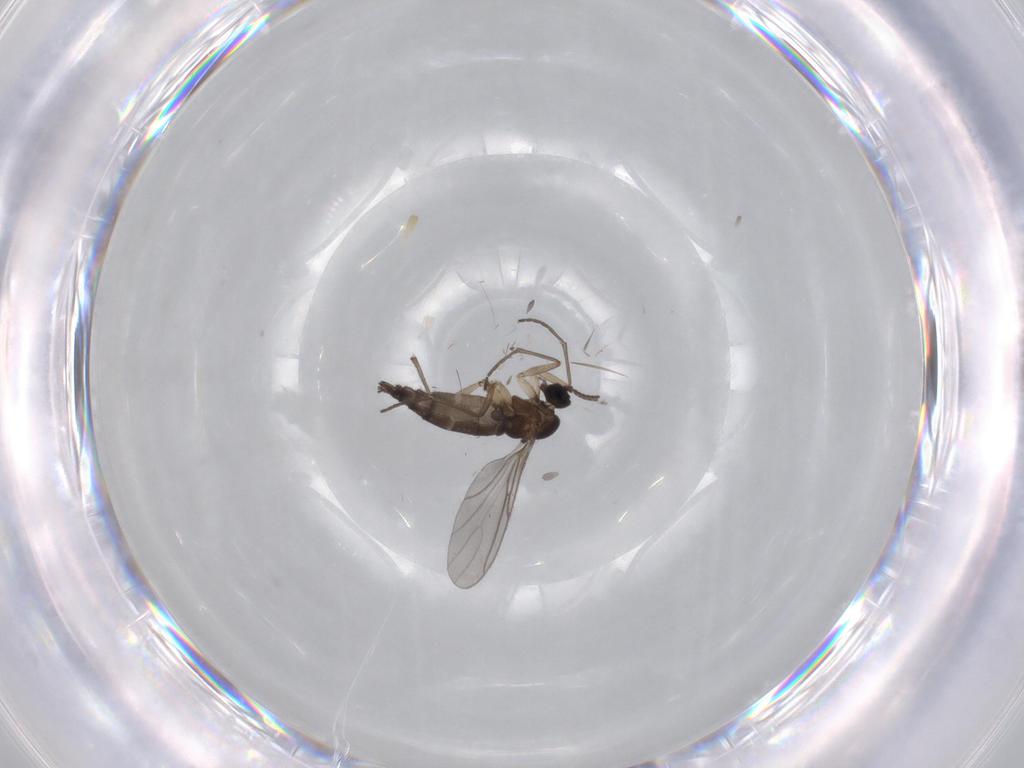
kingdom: Animalia
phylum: Arthropoda
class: Insecta
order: Diptera
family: Sciaridae
